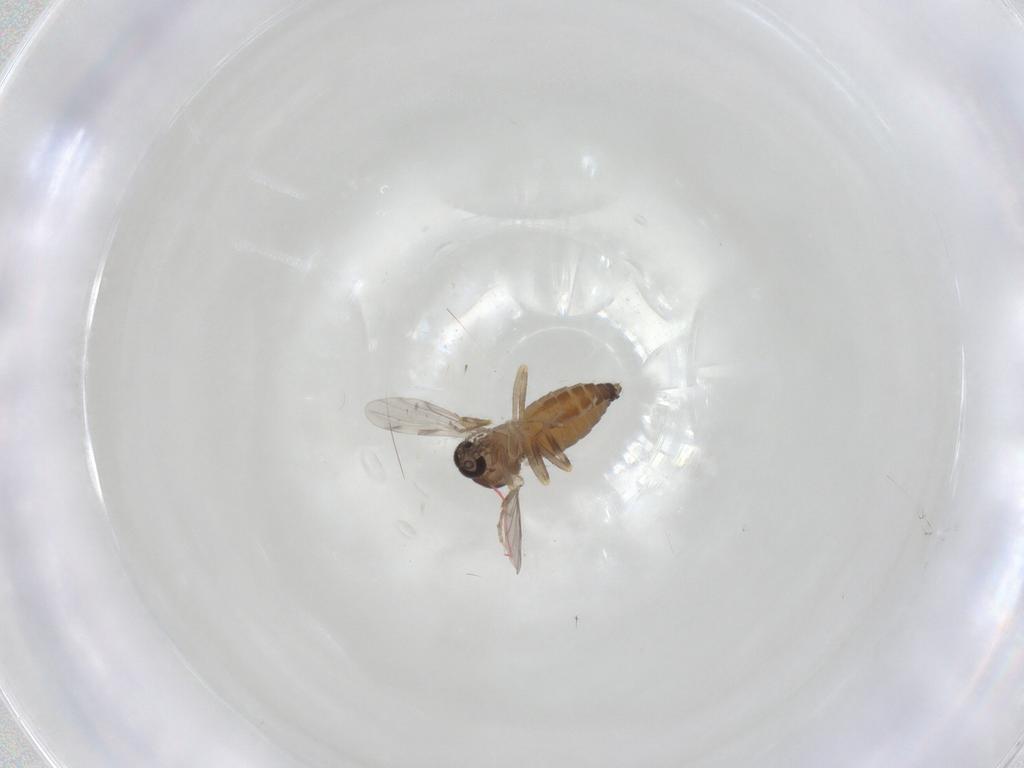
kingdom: Animalia
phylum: Arthropoda
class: Insecta
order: Diptera
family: Ceratopogonidae
